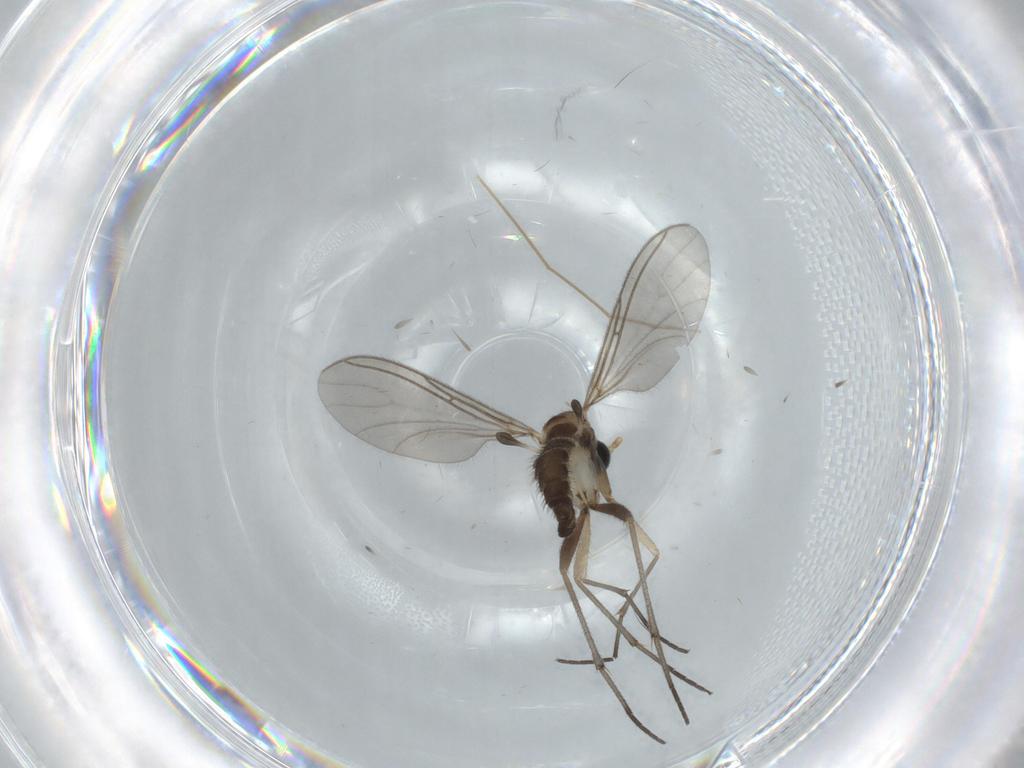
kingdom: Animalia
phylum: Arthropoda
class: Insecta
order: Diptera
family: Sciaridae
